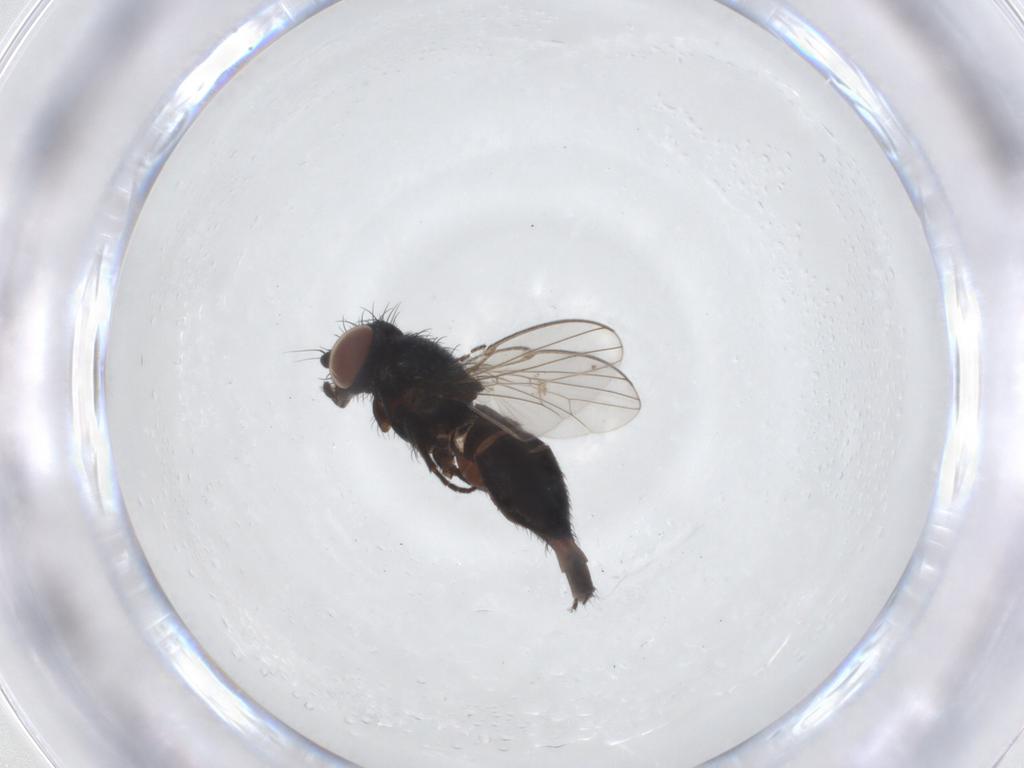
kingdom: Animalia
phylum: Arthropoda
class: Insecta
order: Diptera
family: Milichiidae
